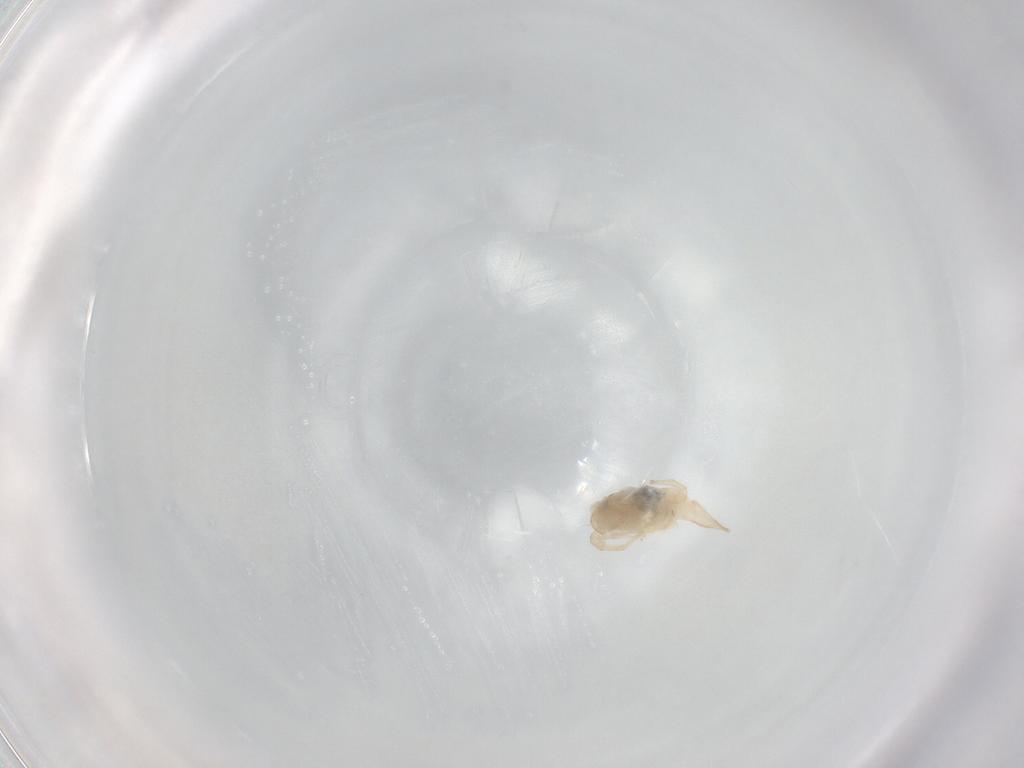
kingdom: Animalia
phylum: Arthropoda
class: Arachnida
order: Trombidiformes
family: Bdellidae
